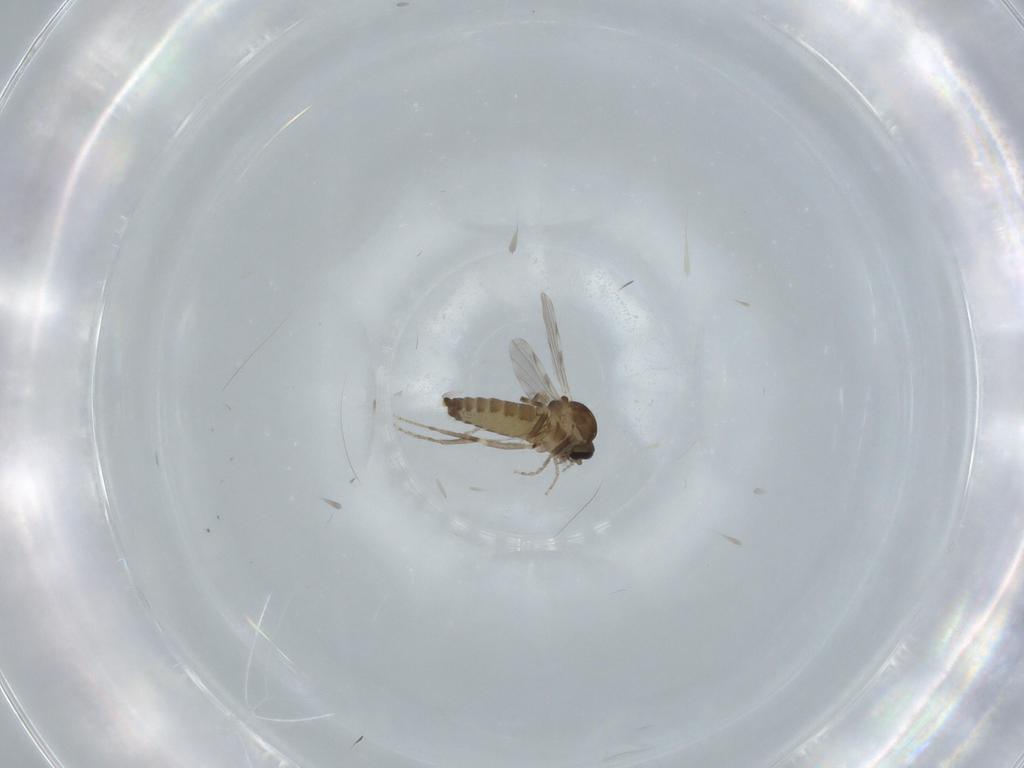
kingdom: Animalia
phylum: Arthropoda
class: Insecta
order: Diptera
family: Ceratopogonidae
